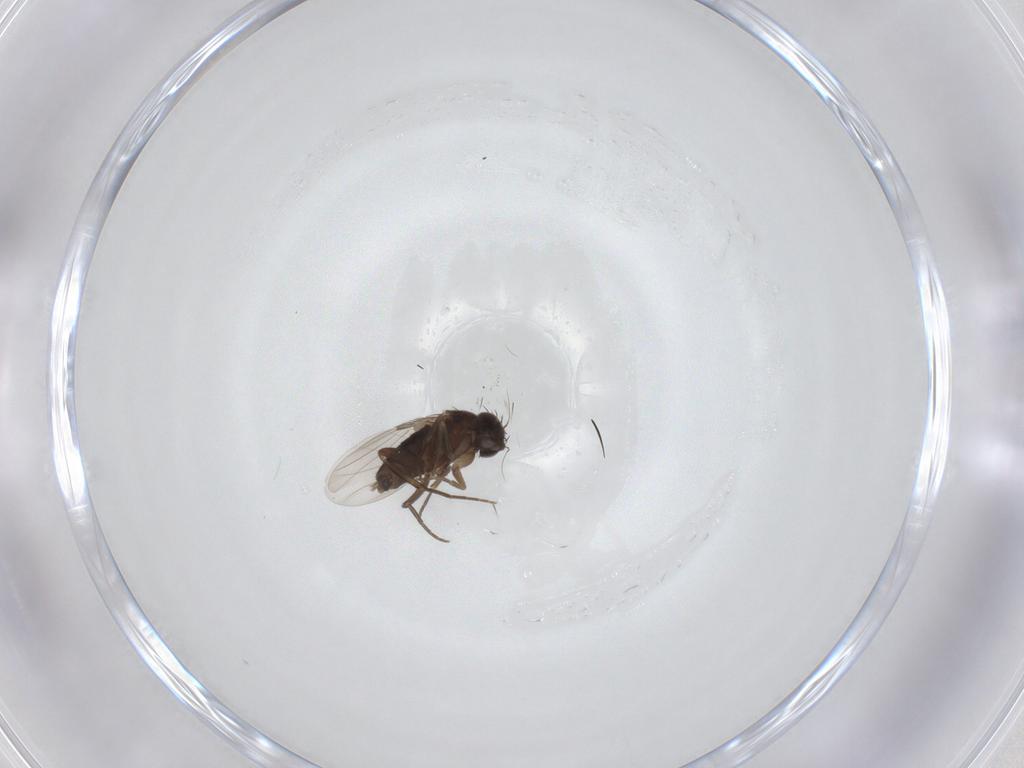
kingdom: Animalia
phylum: Arthropoda
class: Insecta
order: Diptera
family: Phoridae
